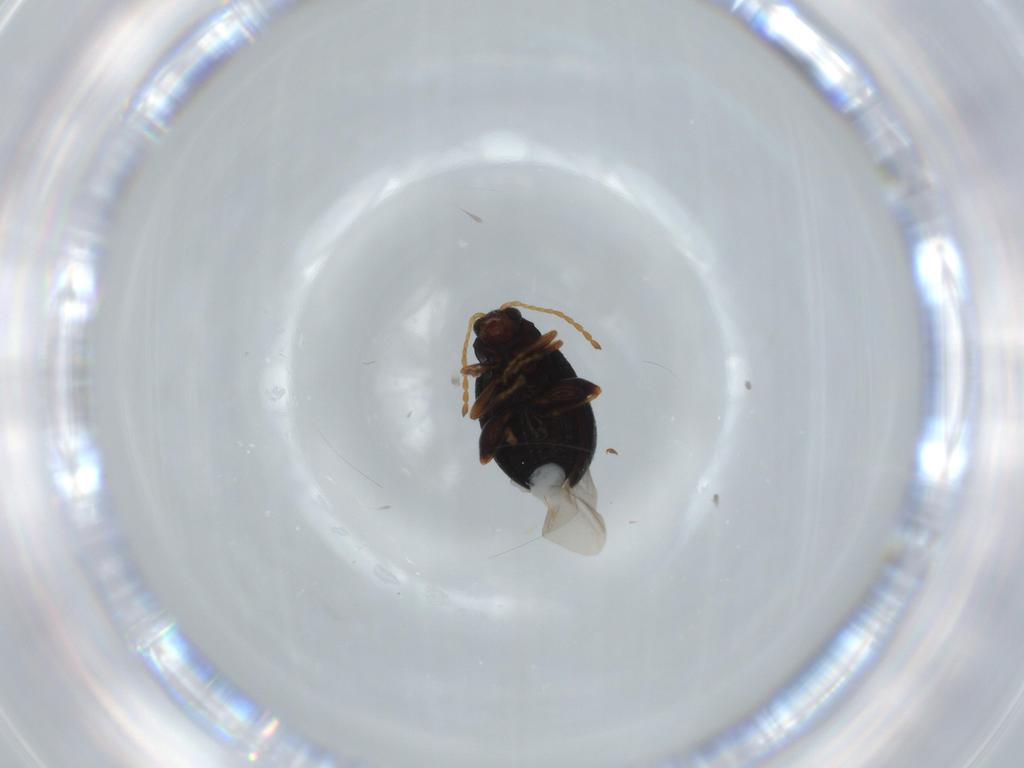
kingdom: Animalia
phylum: Arthropoda
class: Insecta
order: Coleoptera
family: Chrysomelidae
